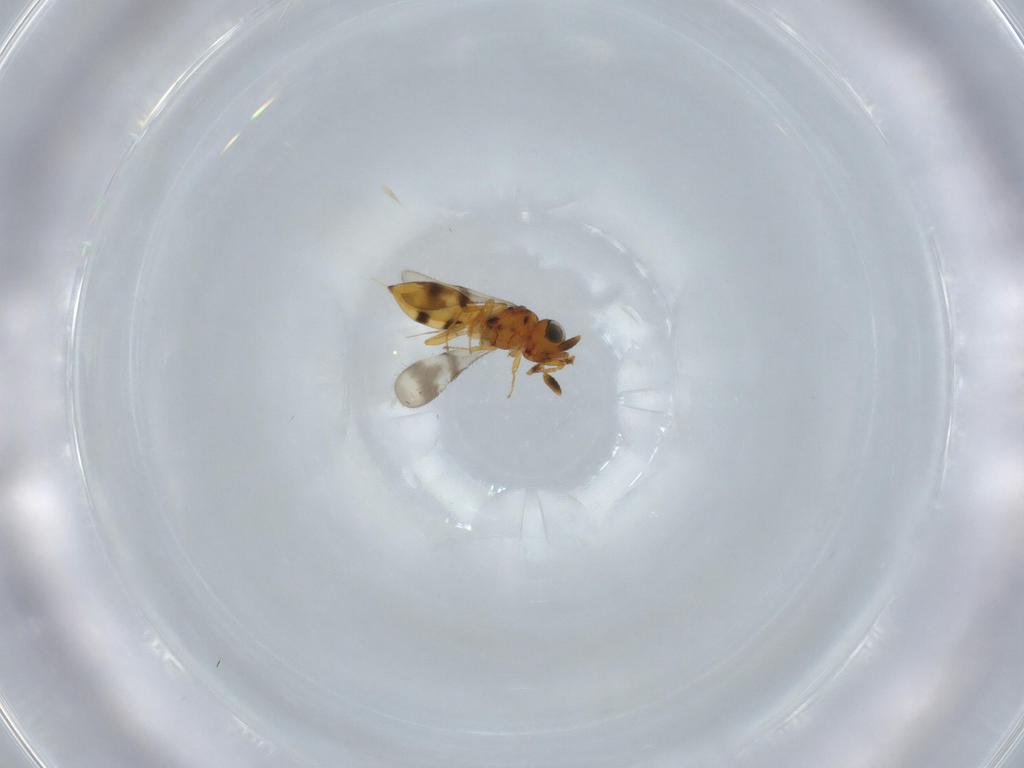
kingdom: Animalia
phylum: Arthropoda
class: Insecta
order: Hymenoptera
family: Scelionidae
